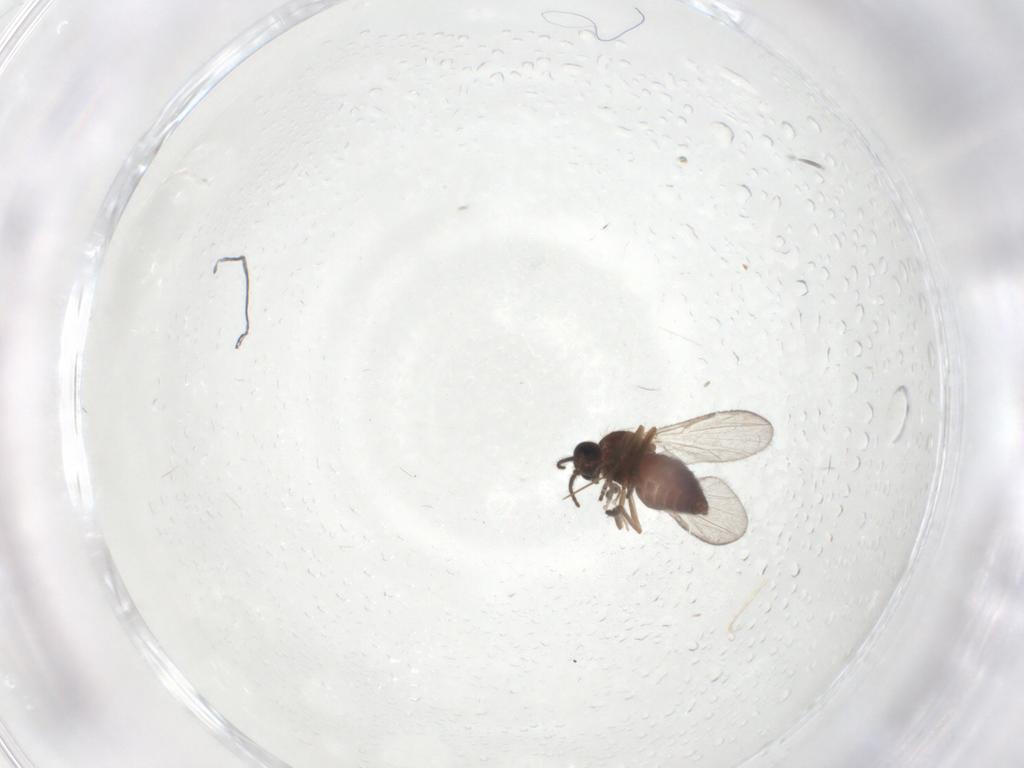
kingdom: Animalia
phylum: Arthropoda
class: Insecta
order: Diptera
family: Ceratopogonidae
